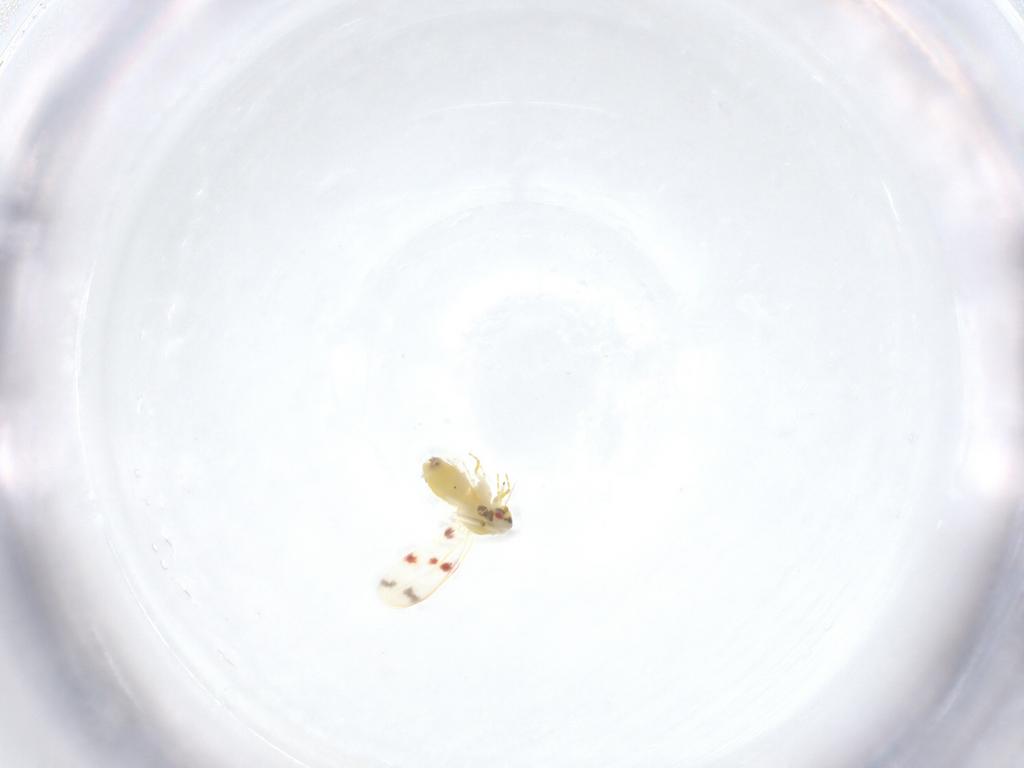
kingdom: Animalia
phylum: Arthropoda
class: Insecta
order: Hemiptera
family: Aleyrodidae
